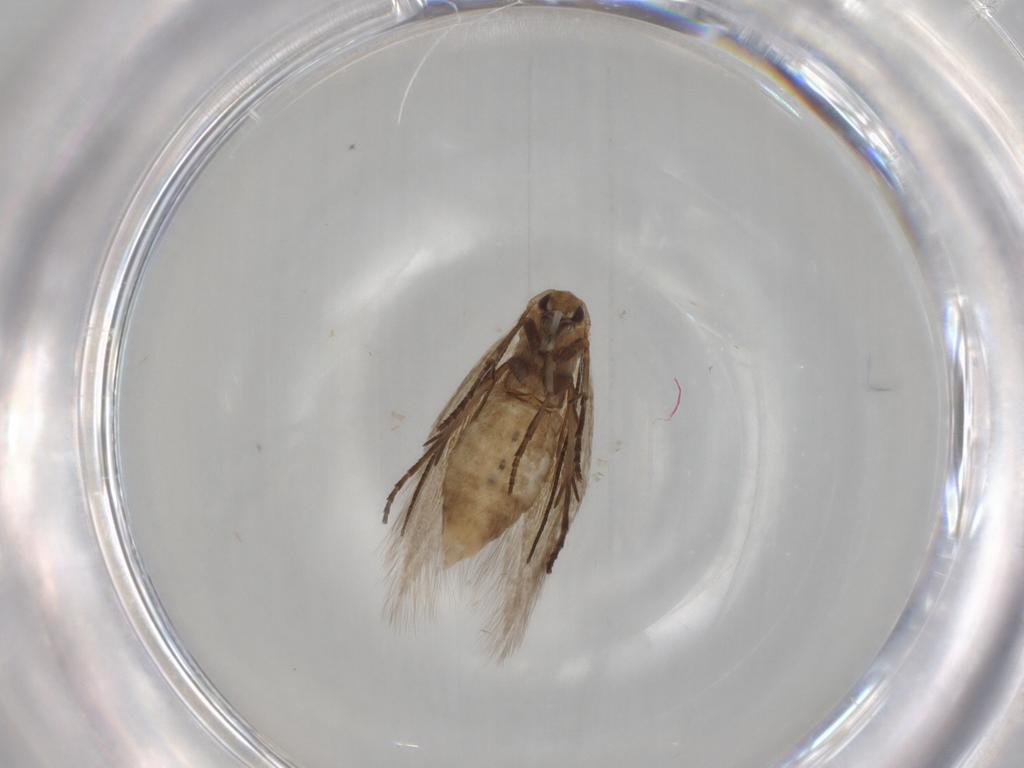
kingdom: Animalia
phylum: Arthropoda
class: Insecta
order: Lepidoptera
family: Bucculatricidae
